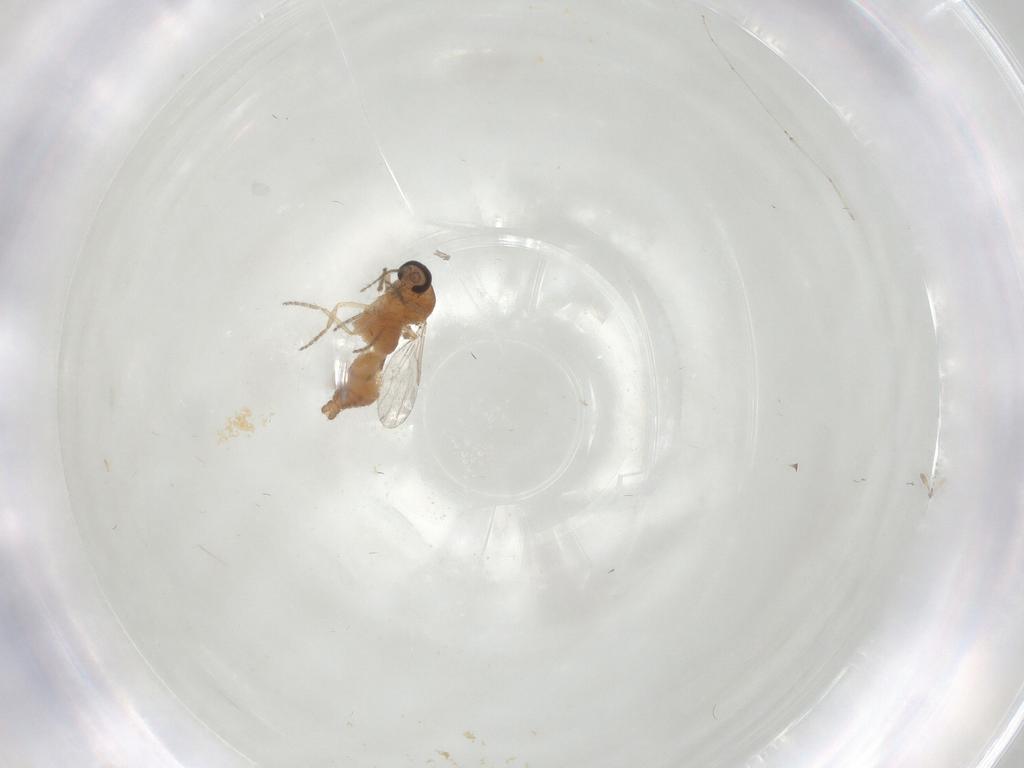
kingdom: Animalia
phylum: Arthropoda
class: Insecta
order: Diptera
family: Ceratopogonidae
